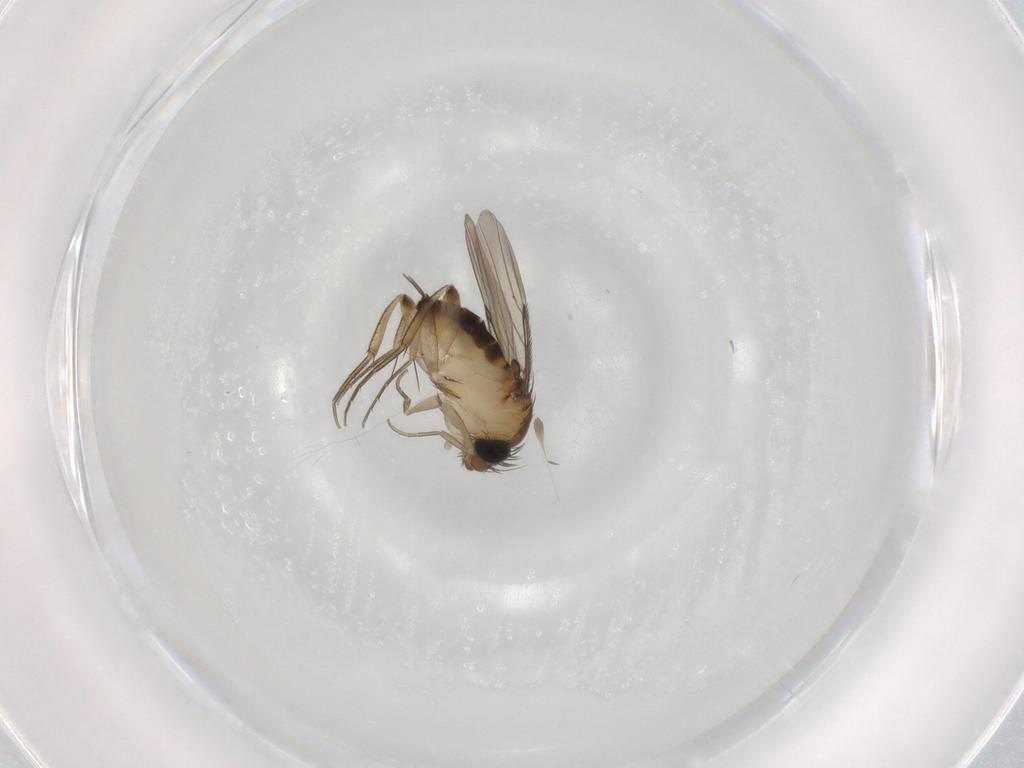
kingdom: Animalia
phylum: Arthropoda
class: Insecta
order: Diptera
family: Phoridae
